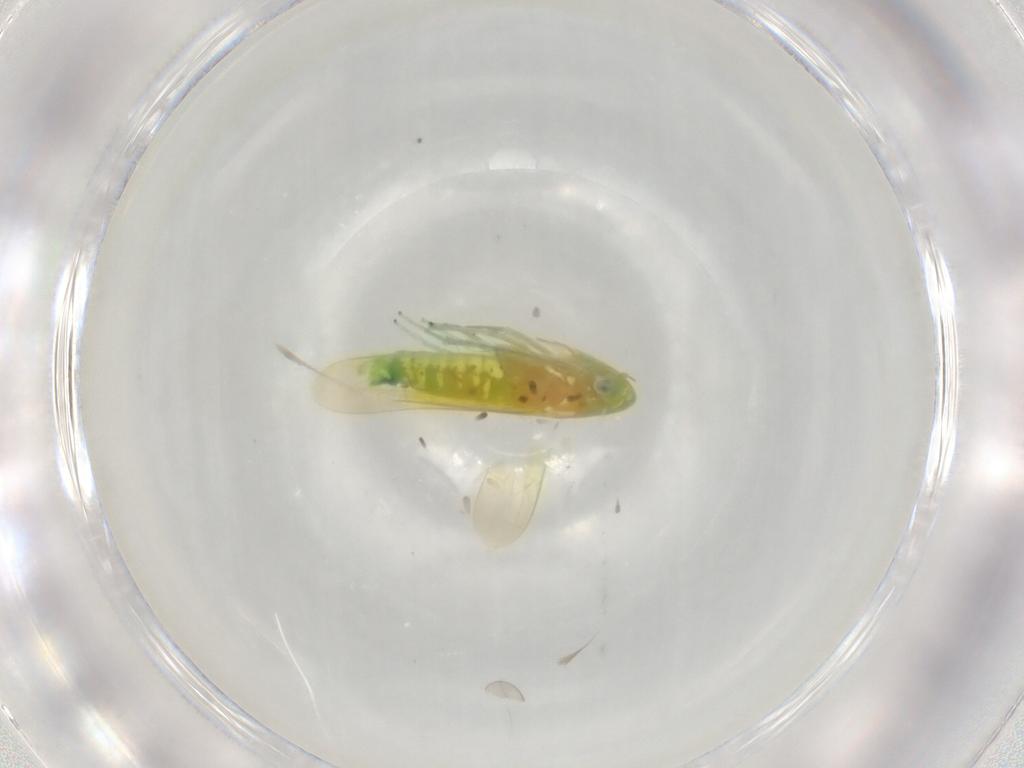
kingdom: Animalia
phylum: Arthropoda
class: Insecta
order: Hemiptera
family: Cicadellidae
